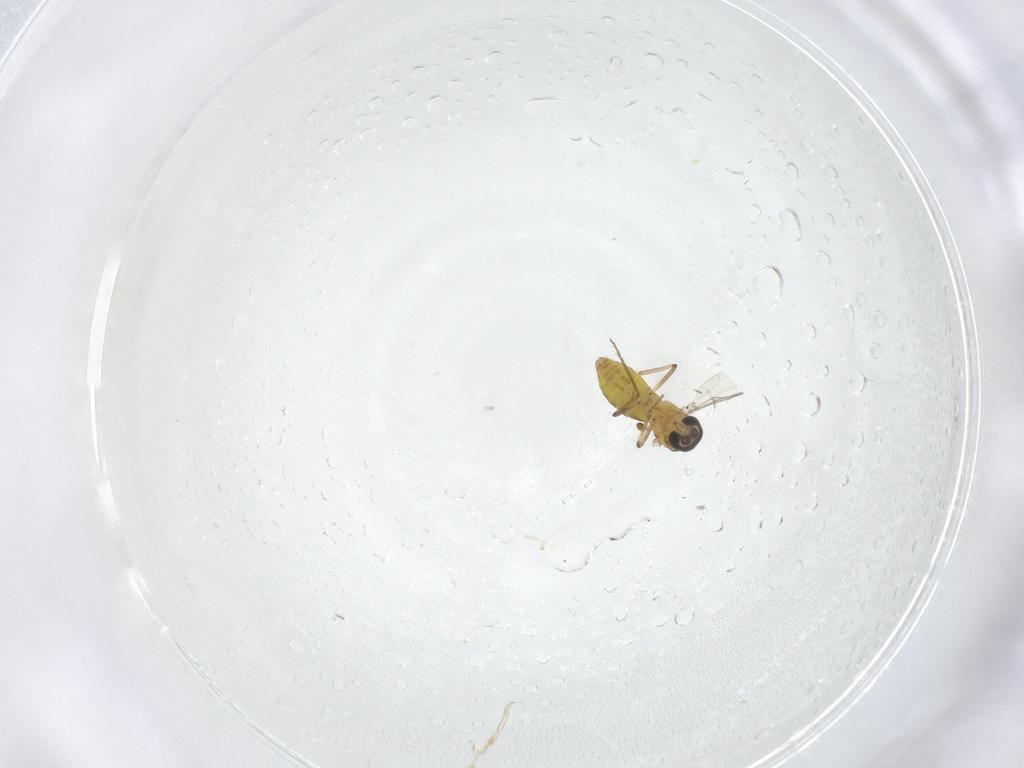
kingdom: Animalia
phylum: Arthropoda
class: Insecta
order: Diptera
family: Ceratopogonidae
